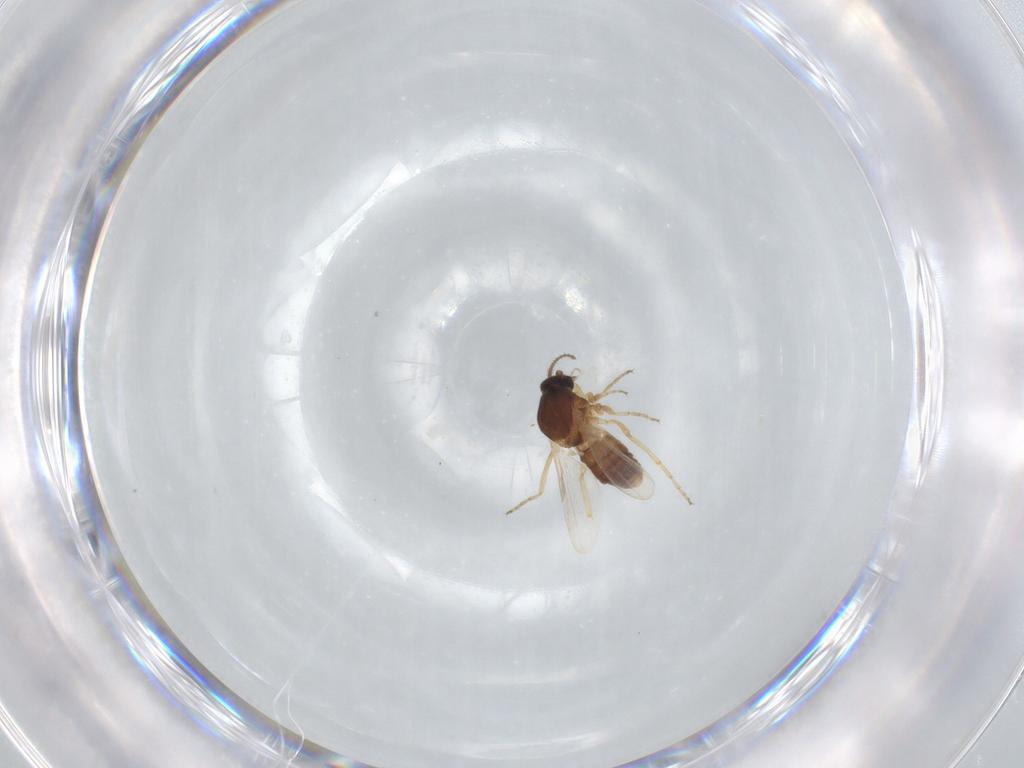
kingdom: Animalia
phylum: Arthropoda
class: Insecta
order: Diptera
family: Ceratopogonidae
